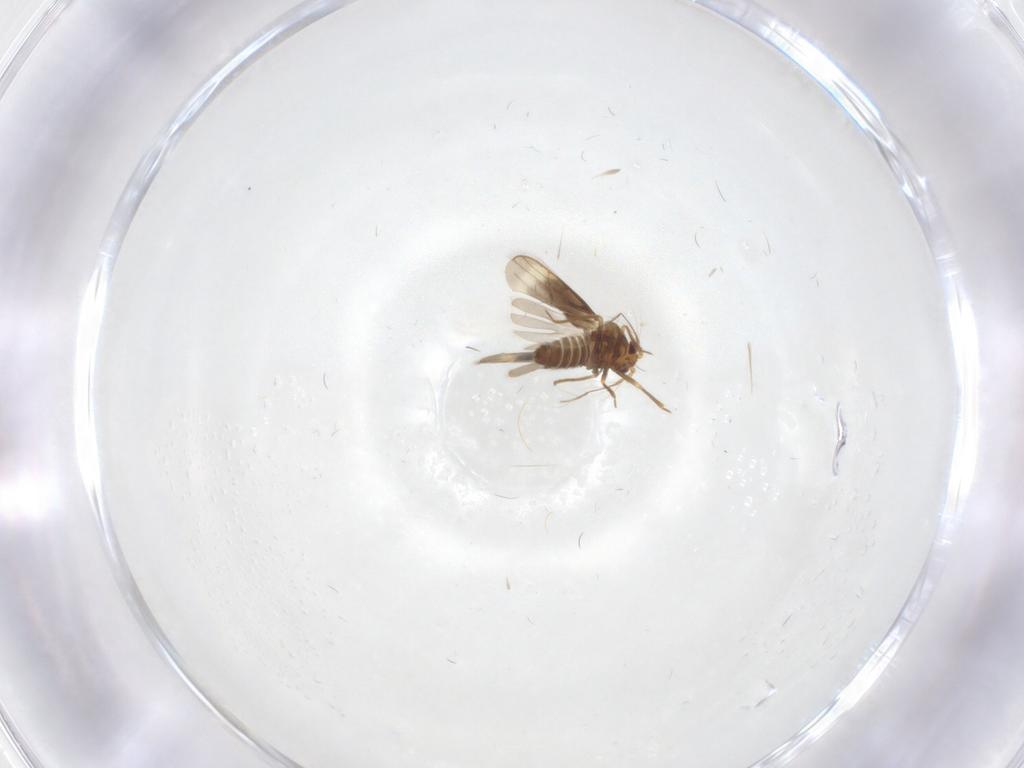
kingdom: Animalia
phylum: Arthropoda
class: Insecta
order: Hemiptera
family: Schizopteridae
